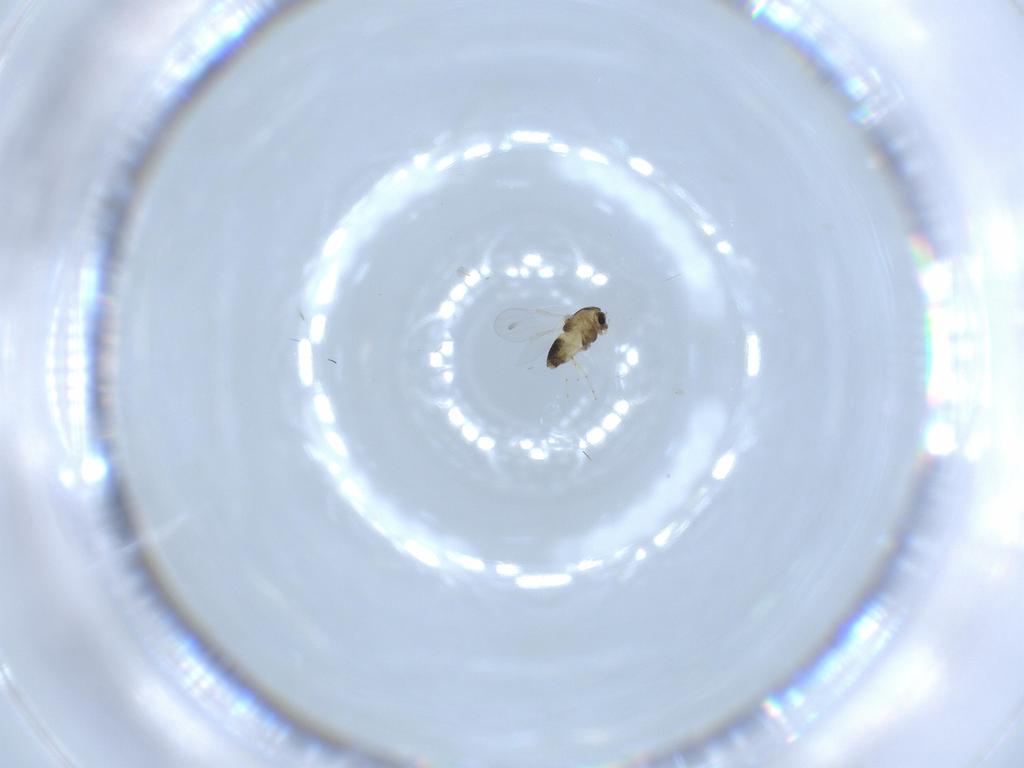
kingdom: Animalia
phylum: Arthropoda
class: Insecta
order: Diptera
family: Chironomidae
